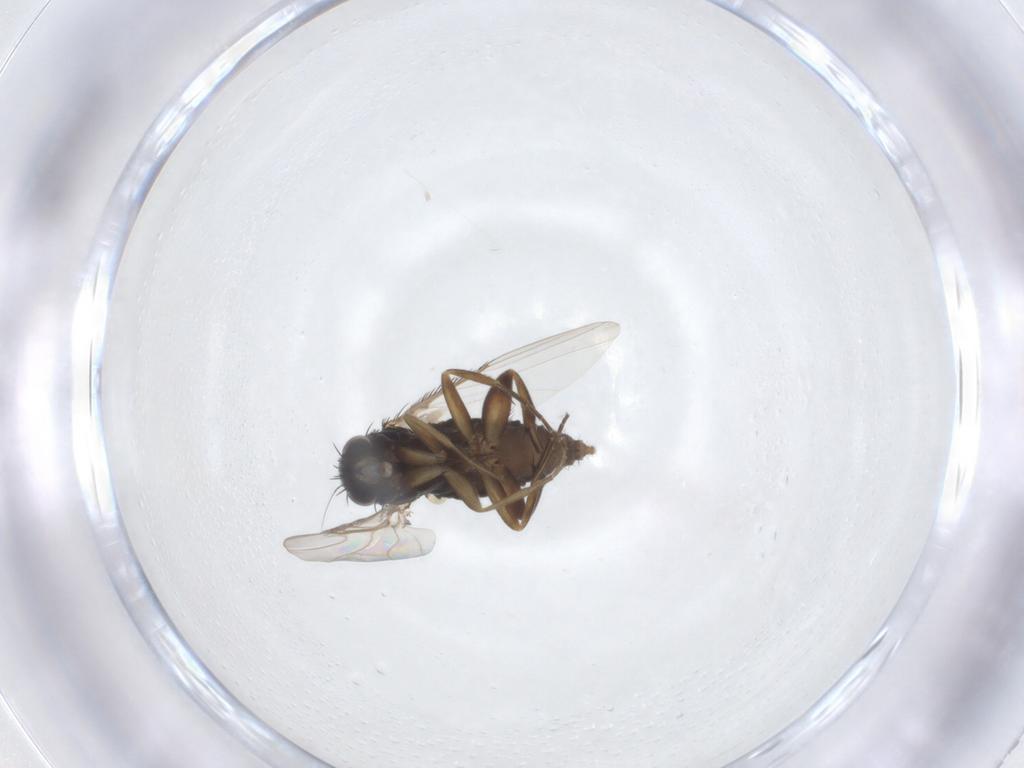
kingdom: Animalia
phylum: Arthropoda
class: Insecta
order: Diptera
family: Phoridae
